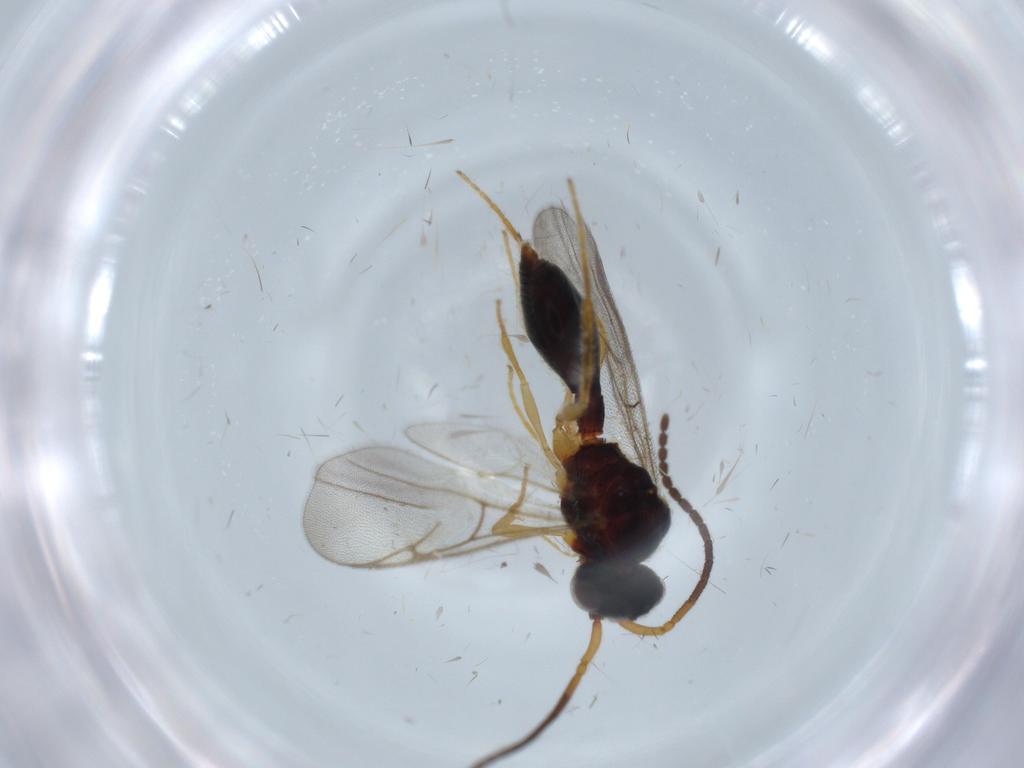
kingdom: Animalia
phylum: Arthropoda
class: Insecta
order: Hymenoptera
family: Diapriidae
